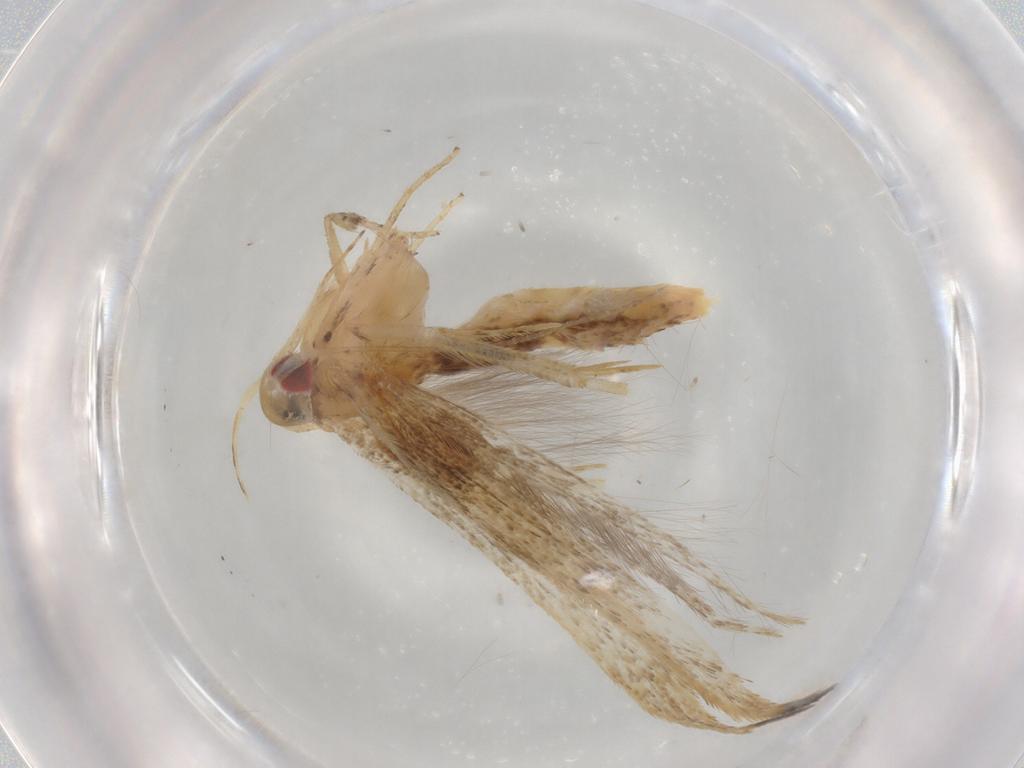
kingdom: Animalia
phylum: Arthropoda
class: Insecta
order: Lepidoptera
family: Cosmopterigidae
